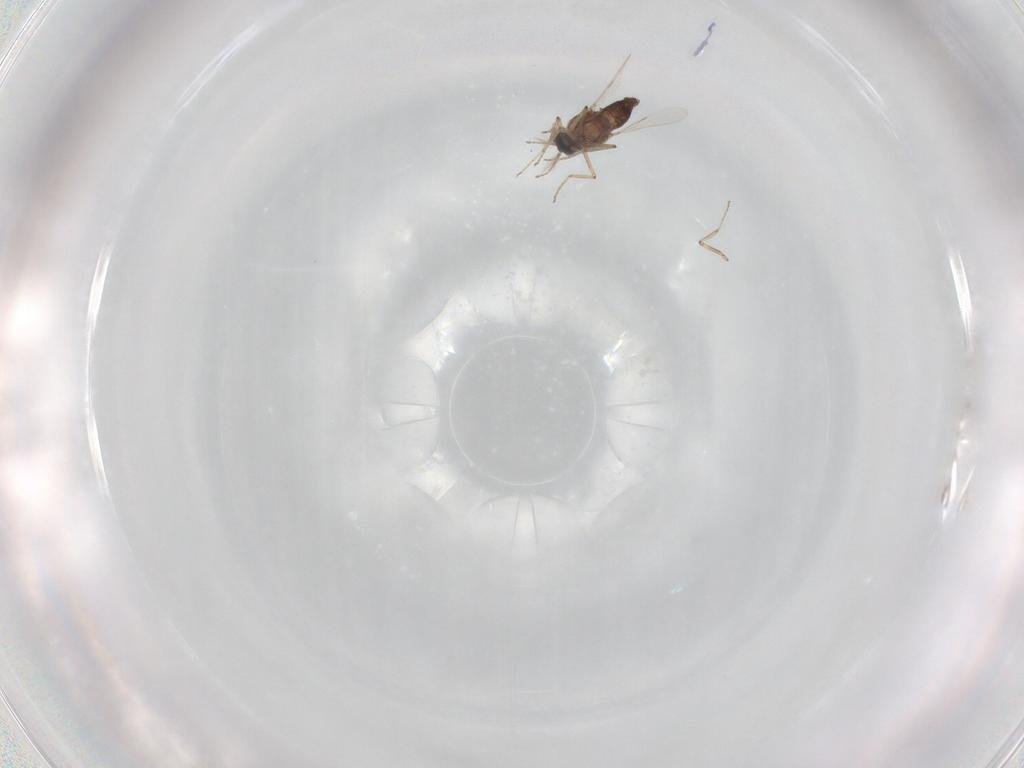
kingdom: Animalia
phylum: Arthropoda
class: Insecta
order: Diptera
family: Ceratopogonidae
